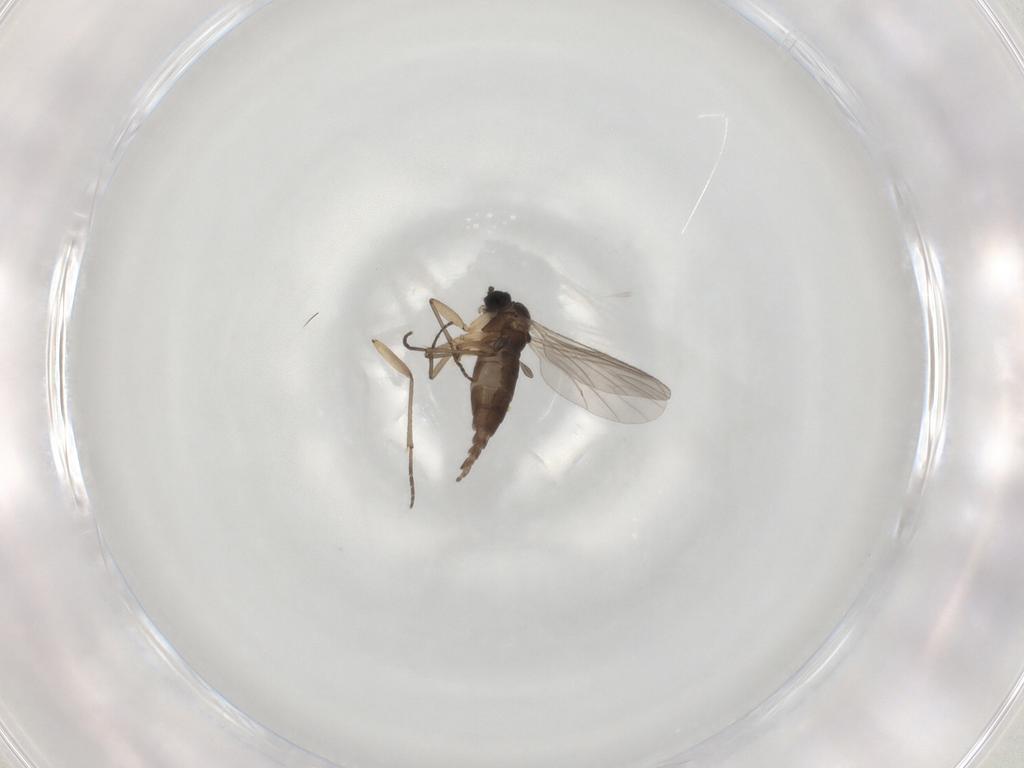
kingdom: Animalia
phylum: Arthropoda
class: Insecta
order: Diptera
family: Sciaridae
